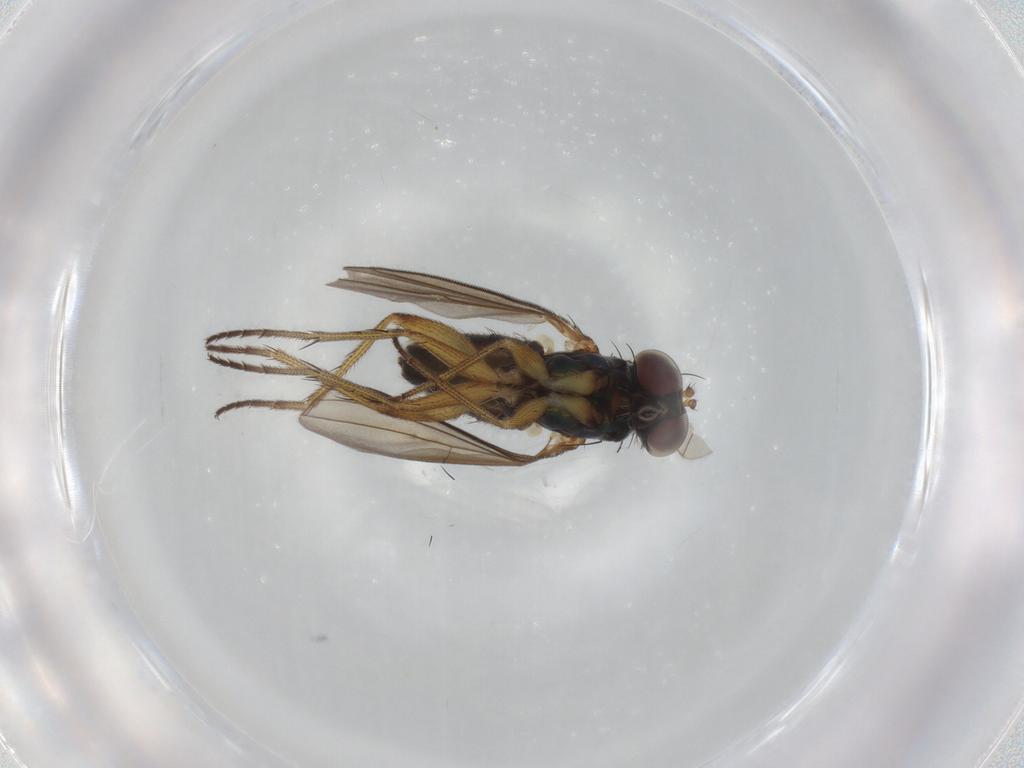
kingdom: Animalia
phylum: Arthropoda
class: Insecta
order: Diptera
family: Dolichopodidae
